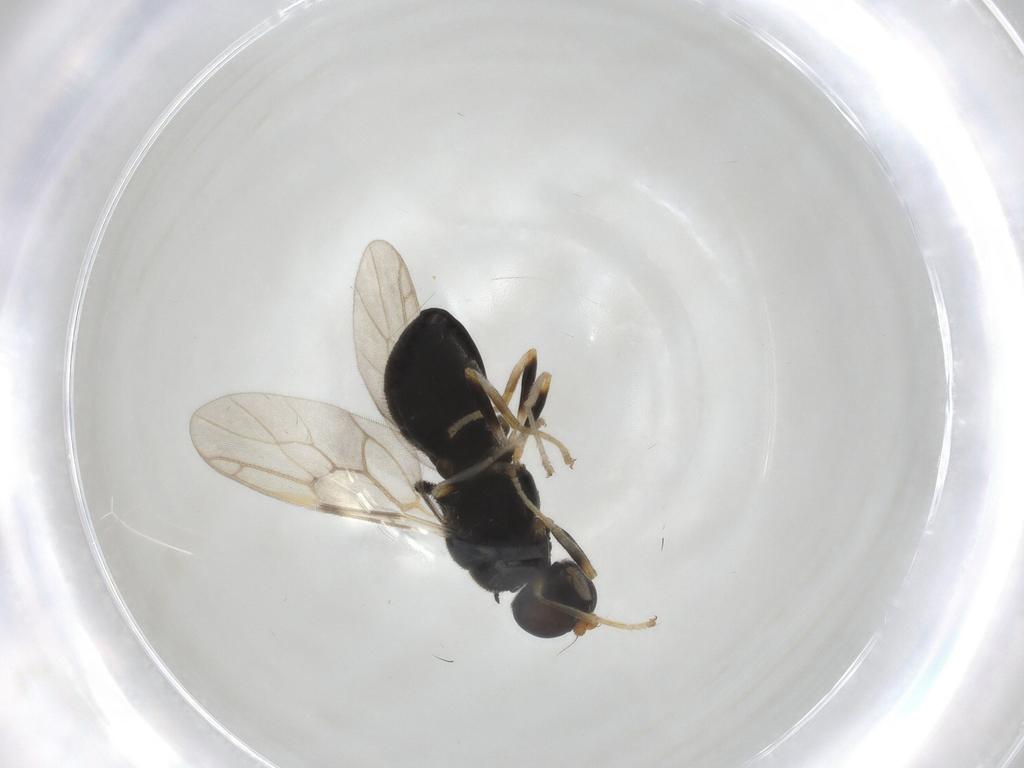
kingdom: Animalia
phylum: Arthropoda
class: Insecta
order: Diptera
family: Stratiomyidae
